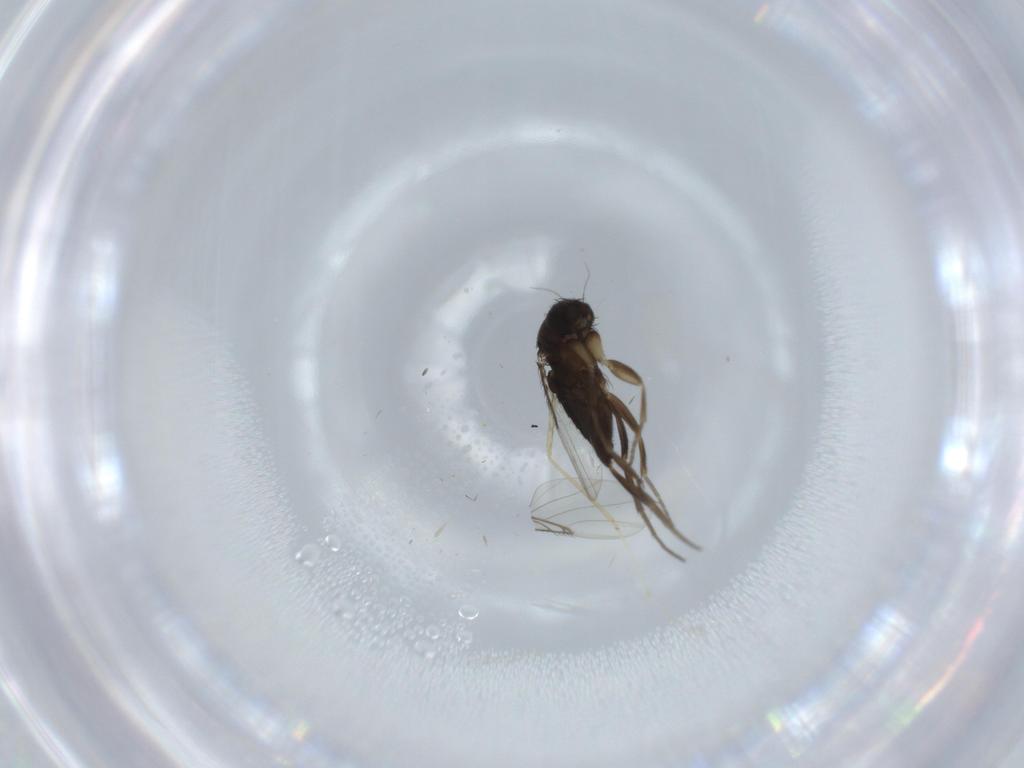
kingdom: Animalia
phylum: Arthropoda
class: Insecta
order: Diptera
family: Phoridae
